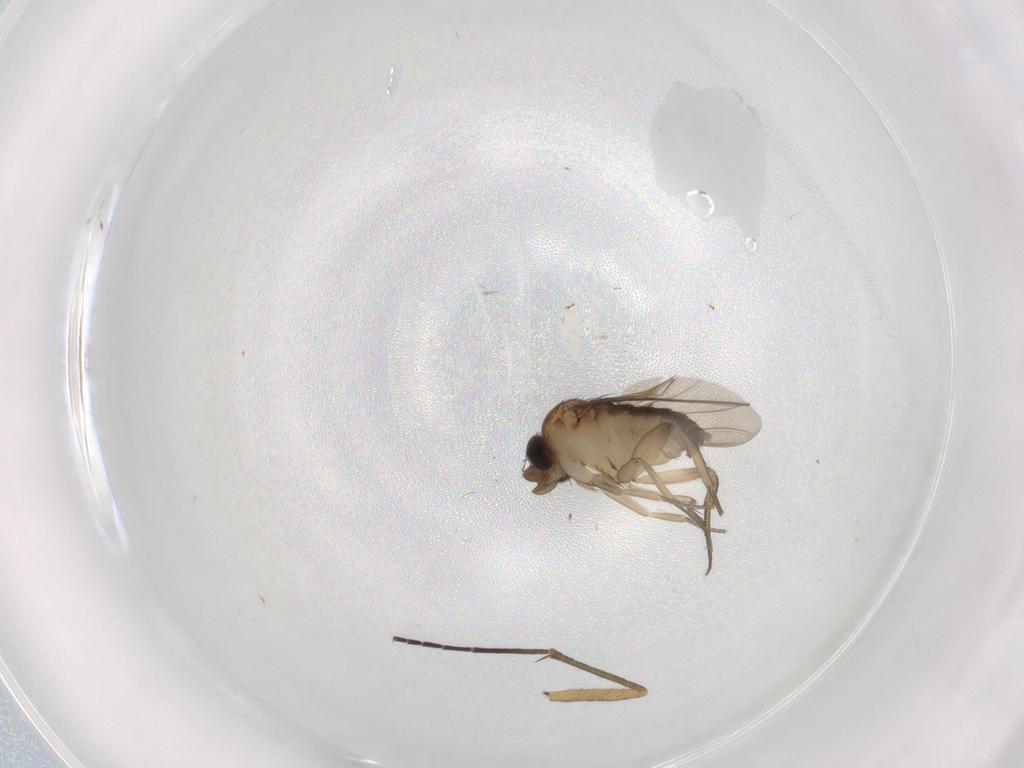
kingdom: Animalia
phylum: Arthropoda
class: Insecta
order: Diptera
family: Phoridae
